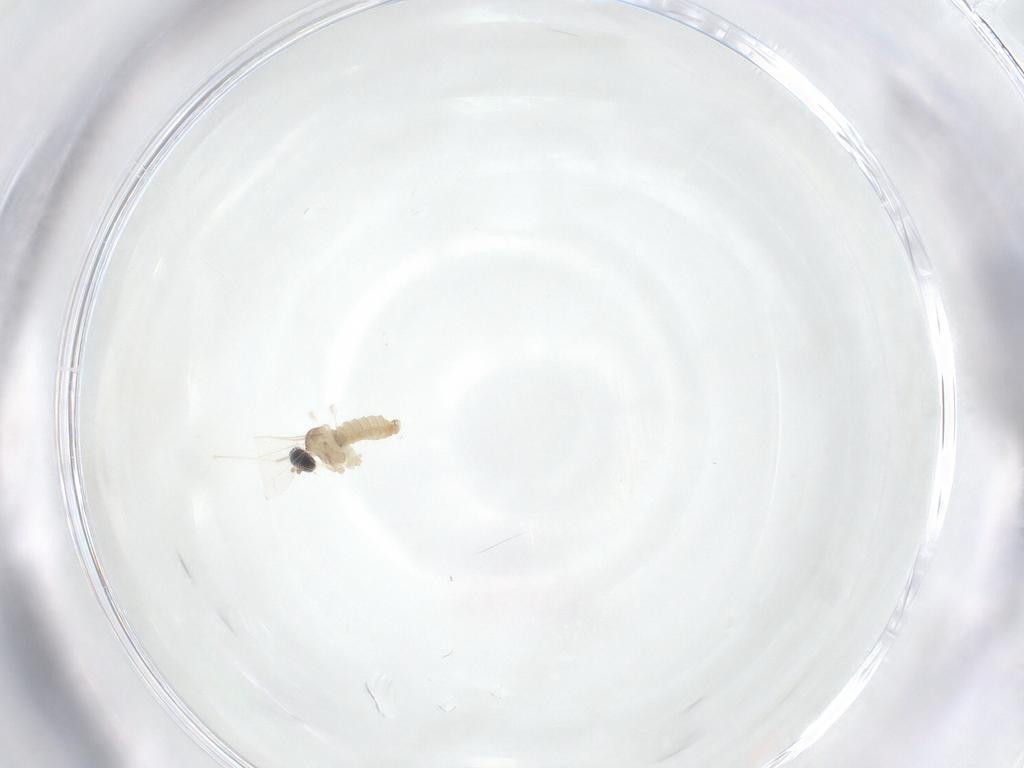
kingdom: Animalia
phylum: Arthropoda
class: Insecta
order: Diptera
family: Cecidomyiidae
